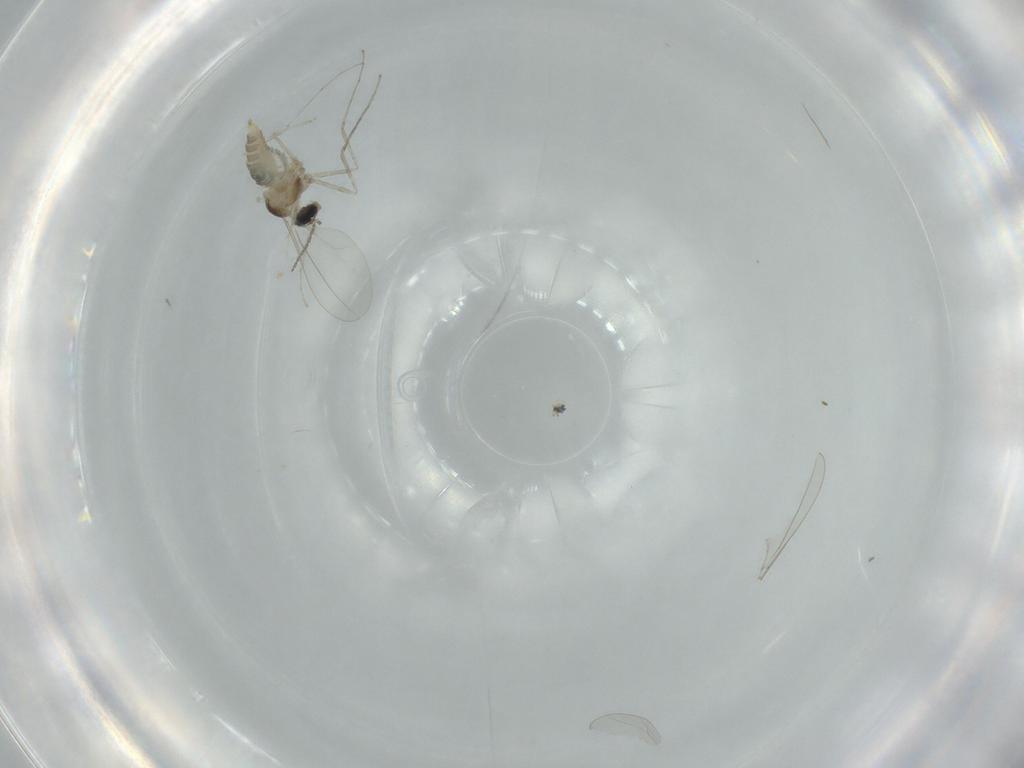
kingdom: Animalia
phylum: Arthropoda
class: Insecta
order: Diptera
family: Cecidomyiidae
